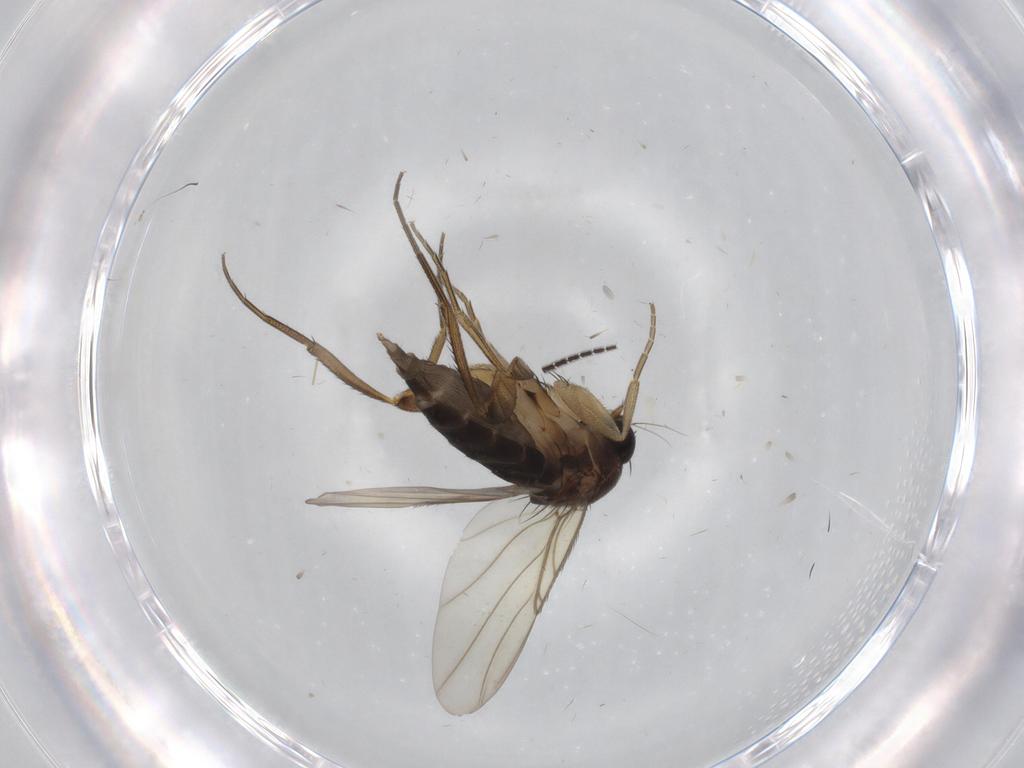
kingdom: Animalia
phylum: Arthropoda
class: Insecta
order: Diptera
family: Phoridae
